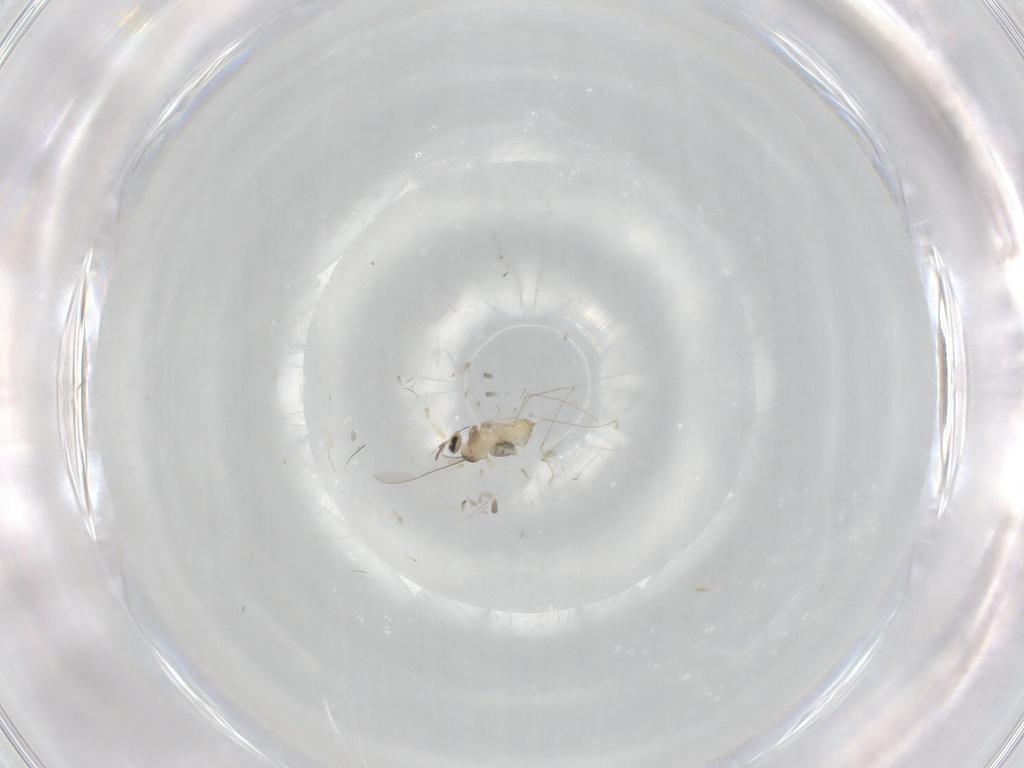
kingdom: Animalia
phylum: Arthropoda
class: Insecta
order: Diptera
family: Cecidomyiidae
